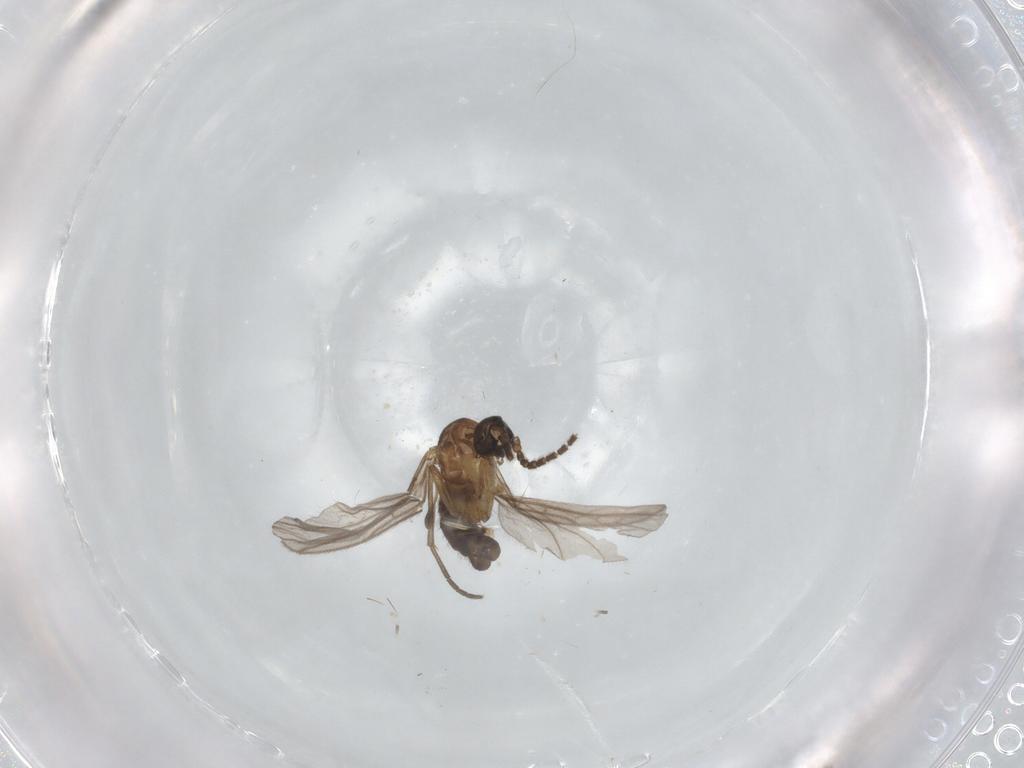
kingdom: Animalia
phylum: Arthropoda
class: Insecta
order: Diptera
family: Sciaridae
